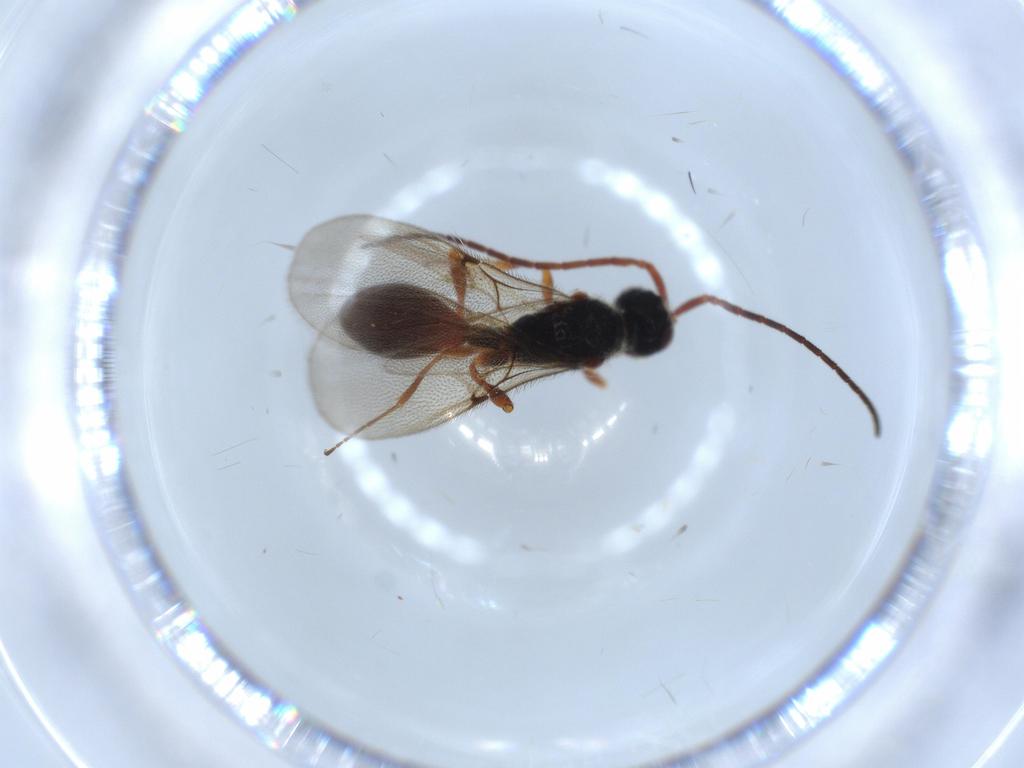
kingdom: Animalia
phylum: Arthropoda
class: Insecta
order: Hymenoptera
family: Diapriidae
